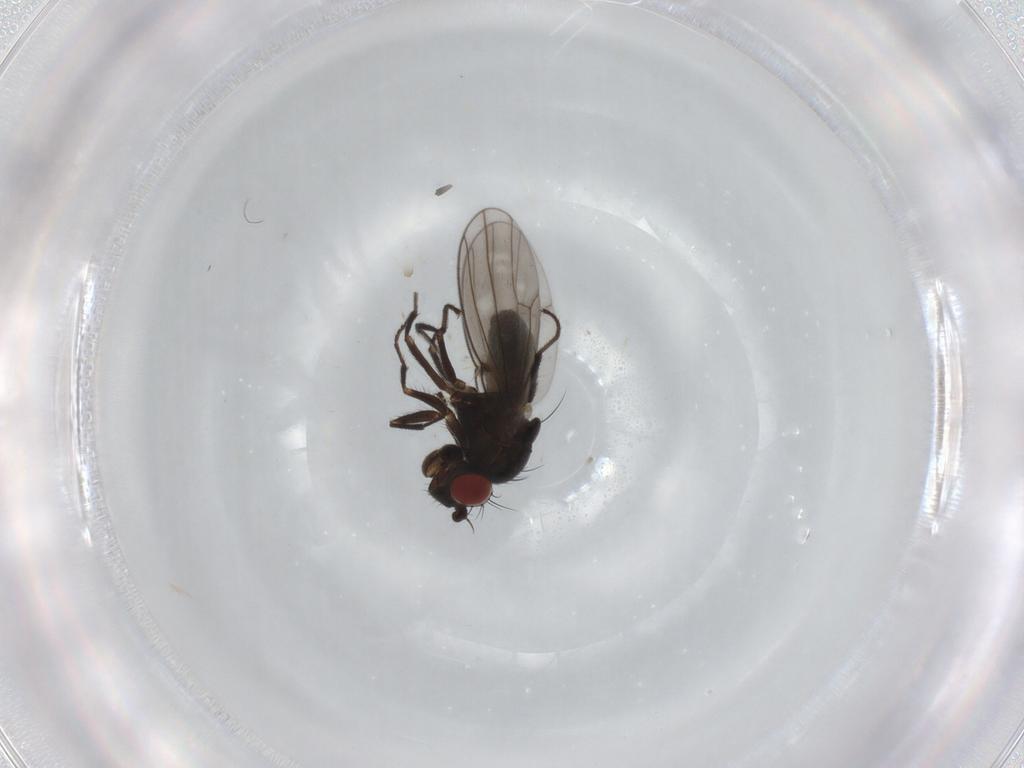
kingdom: Animalia
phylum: Arthropoda
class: Insecta
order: Diptera
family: Ephydridae
